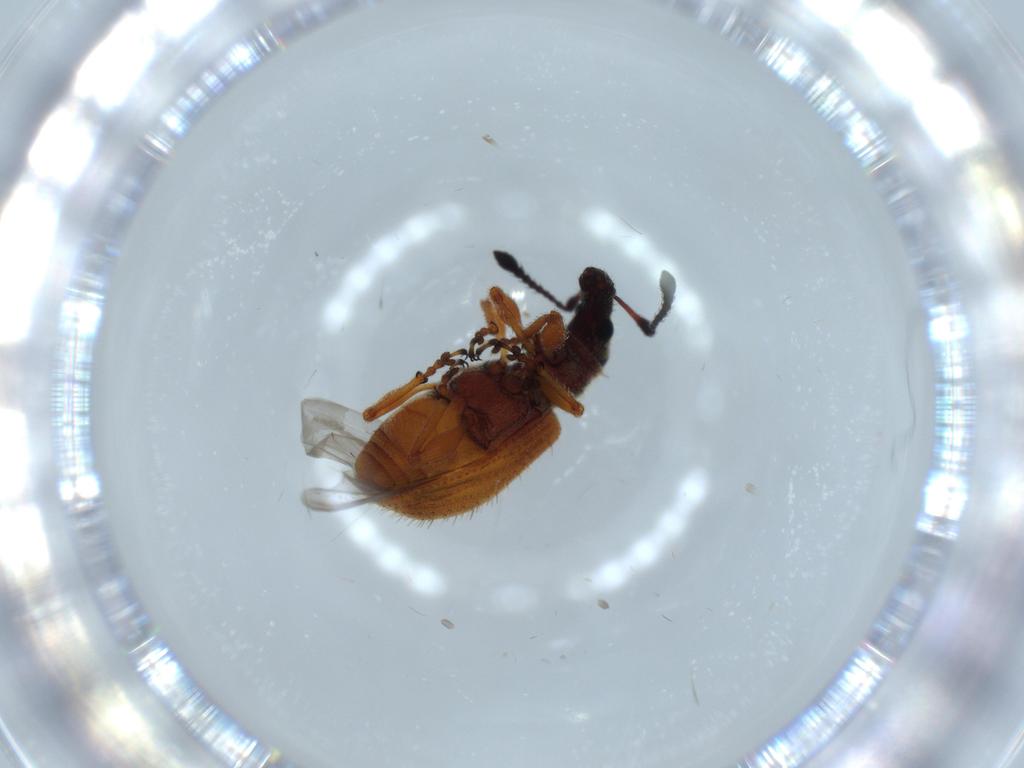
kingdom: Animalia
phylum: Arthropoda
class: Insecta
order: Coleoptera
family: Curculionidae
